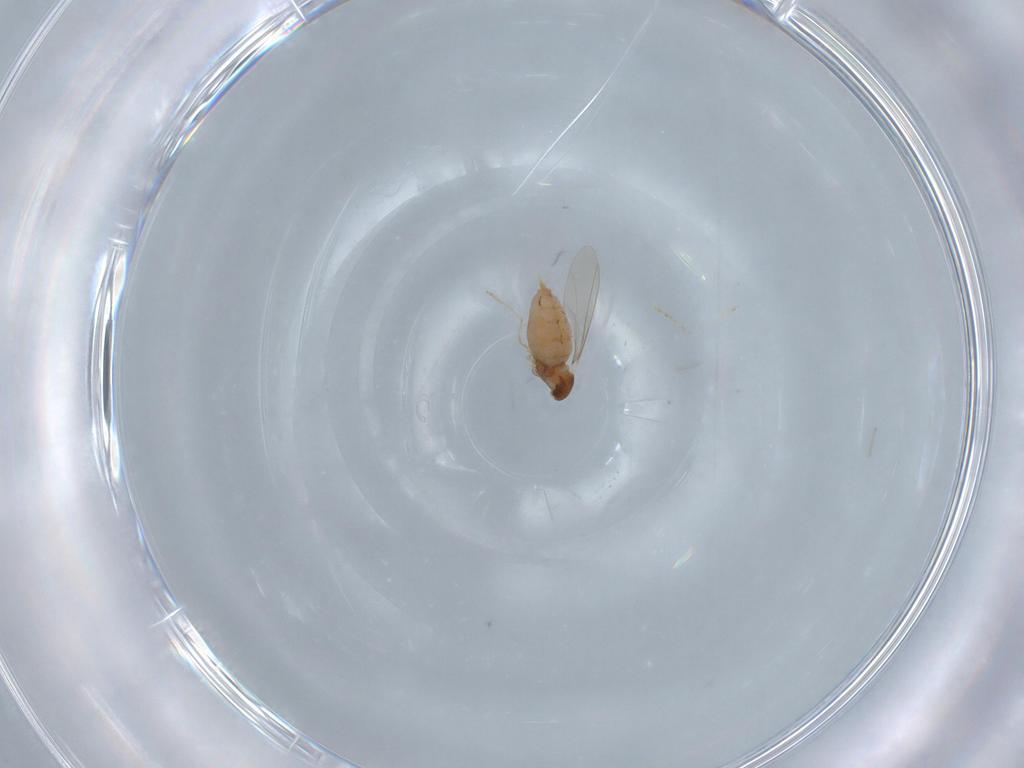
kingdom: Animalia
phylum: Arthropoda
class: Insecta
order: Diptera
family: Ceratopogonidae
